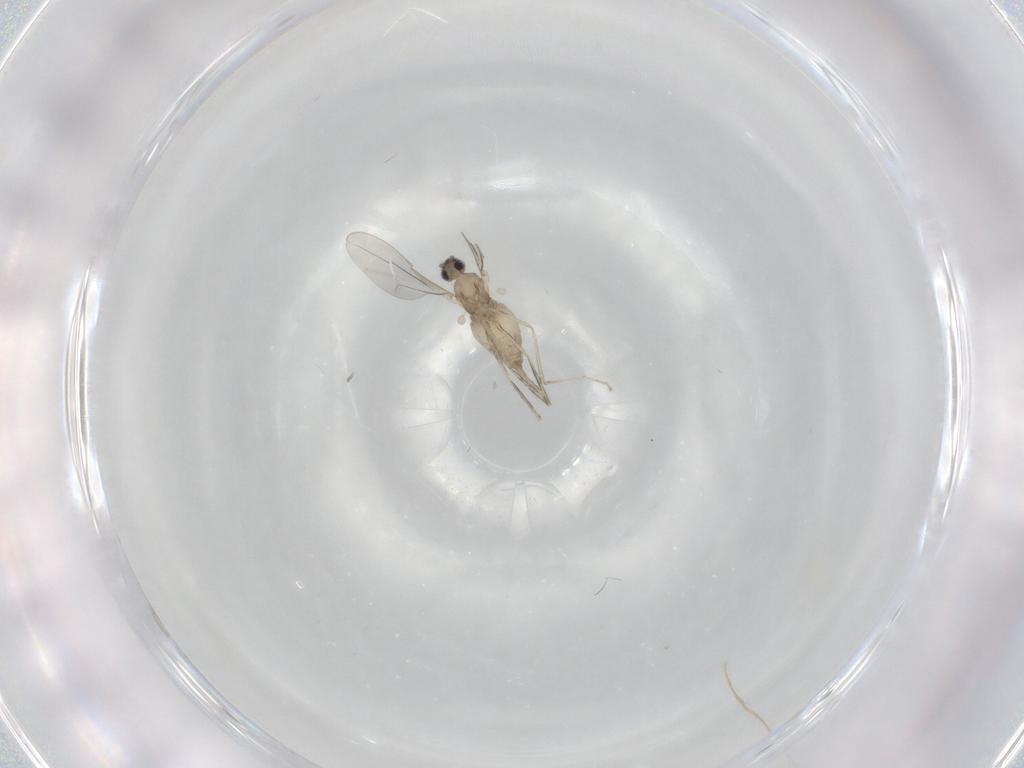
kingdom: Animalia
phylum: Arthropoda
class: Insecta
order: Diptera
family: Cecidomyiidae
